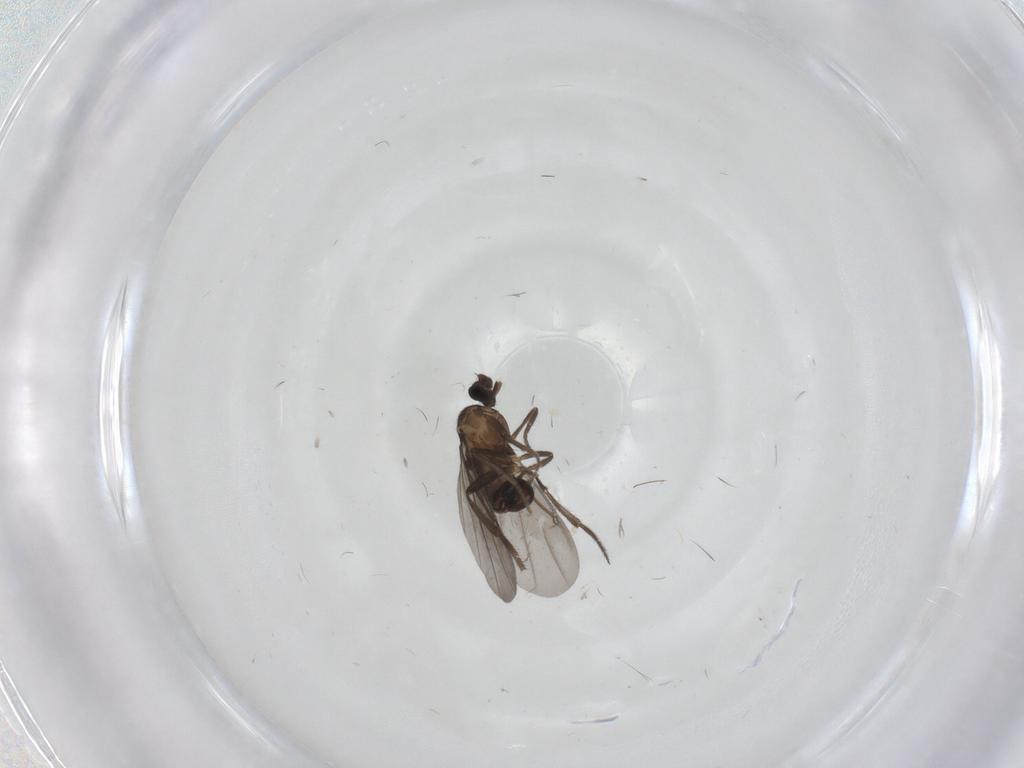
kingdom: Animalia
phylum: Arthropoda
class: Insecta
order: Diptera
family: Phoridae
